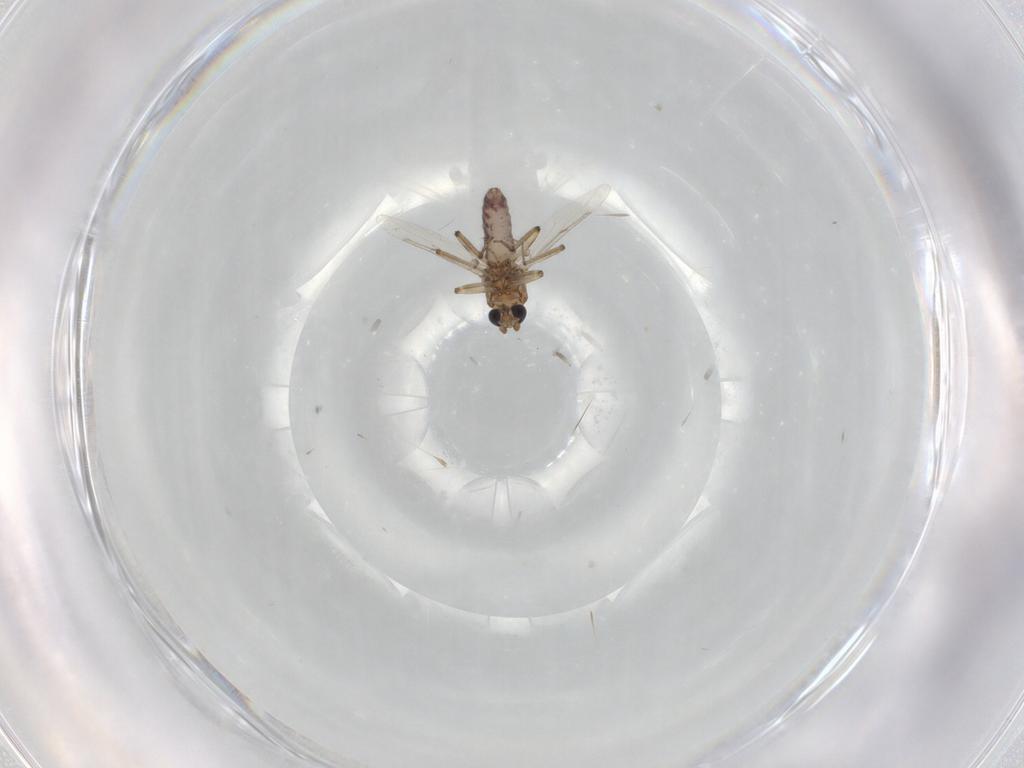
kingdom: Animalia
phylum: Arthropoda
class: Insecta
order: Diptera
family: Ceratopogonidae
